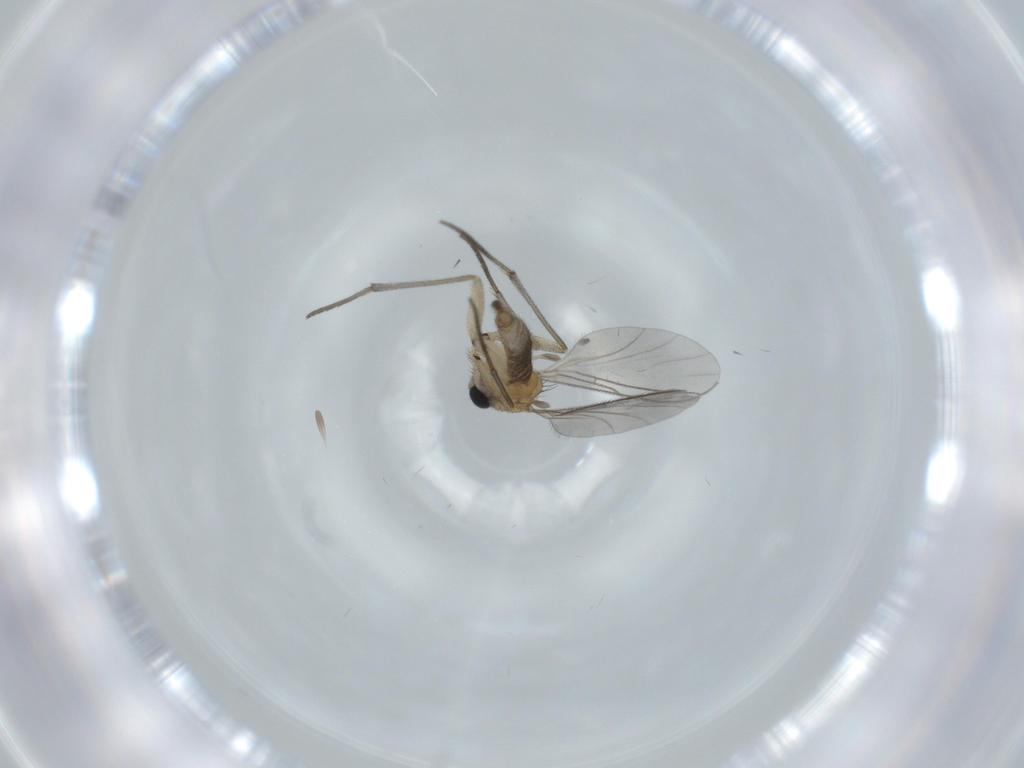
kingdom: Animalia
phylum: Arthropoda
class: Insecta
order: Diptera
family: Sciaridae
